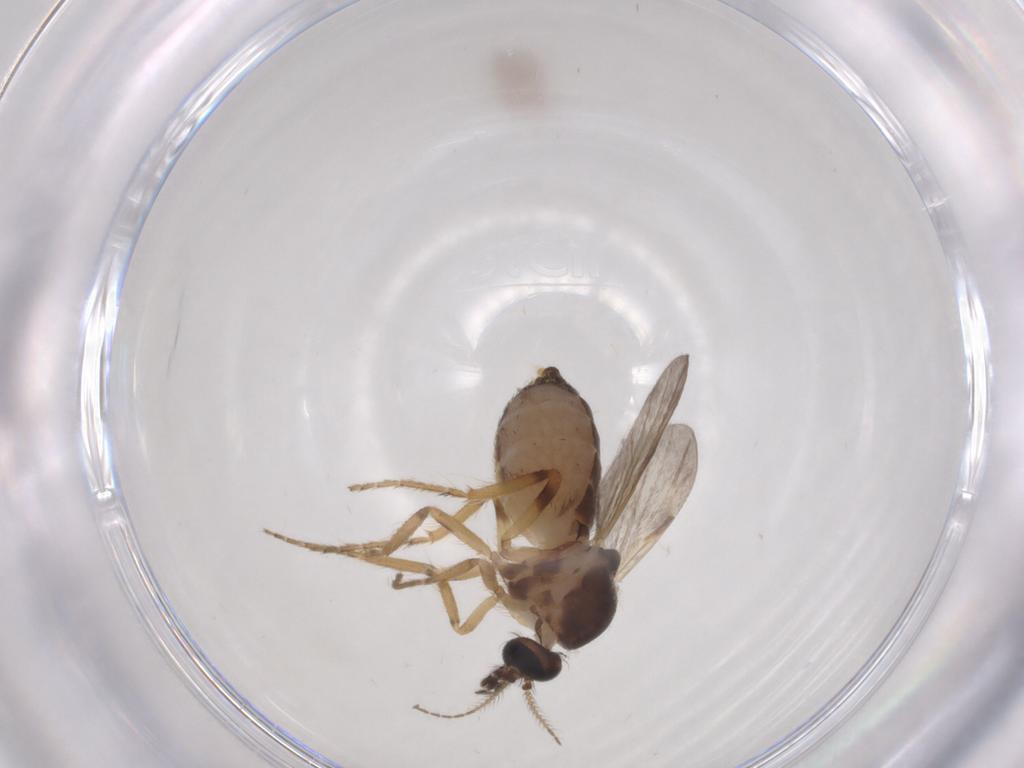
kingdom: Animalia
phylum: Arthropoda
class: Insecta
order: Diptera
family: Ceratopogonidae
